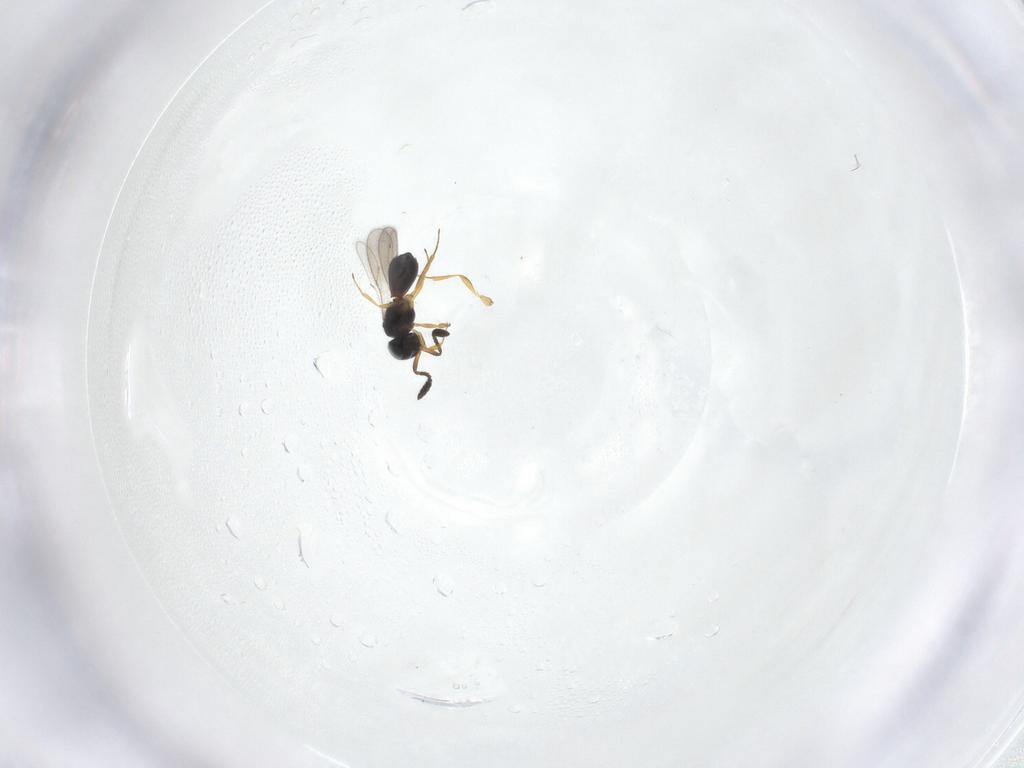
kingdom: Animalia
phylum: Arthropoda
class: Insecta
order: Hymenoptera
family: Scelionidae
